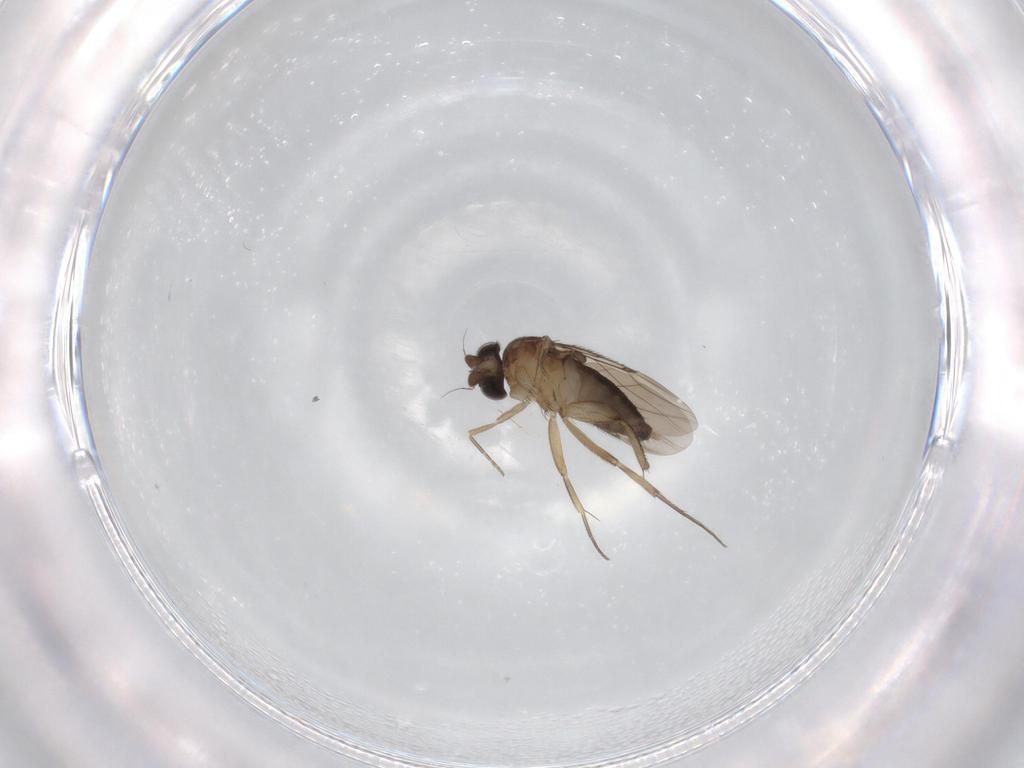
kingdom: Animalia
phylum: Arthropoda
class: Insecta
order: Diptera
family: Phoridae
